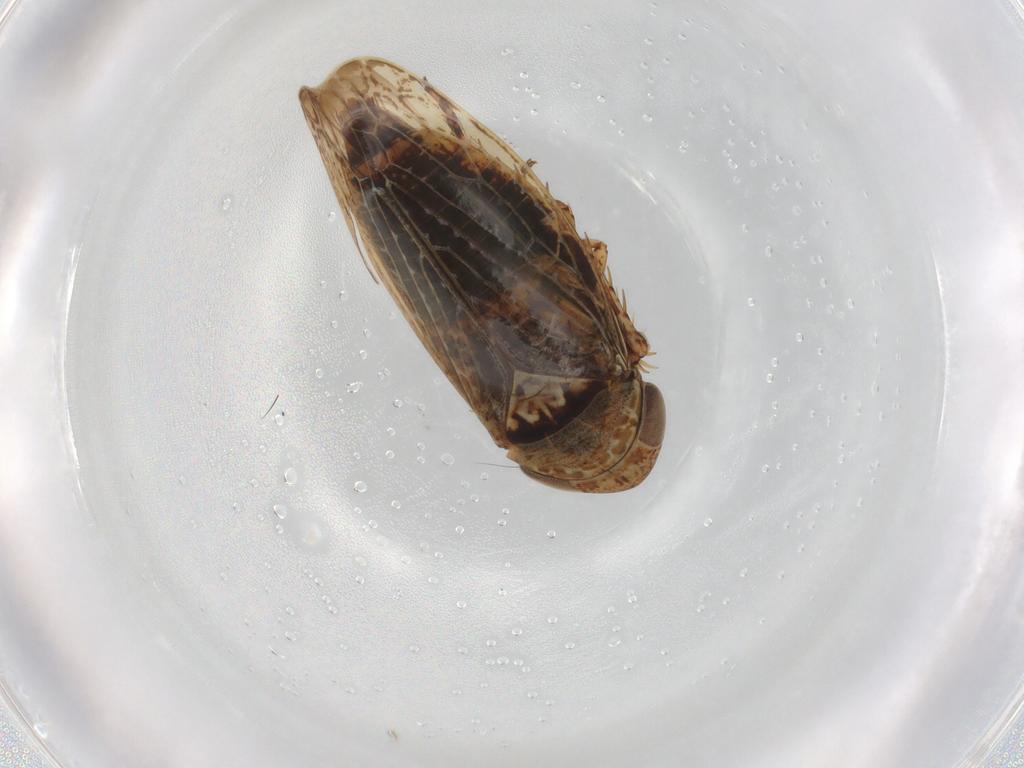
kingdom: Animalia
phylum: Arthropoda
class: Insecta
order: Hemiptera
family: Cicadellidae
